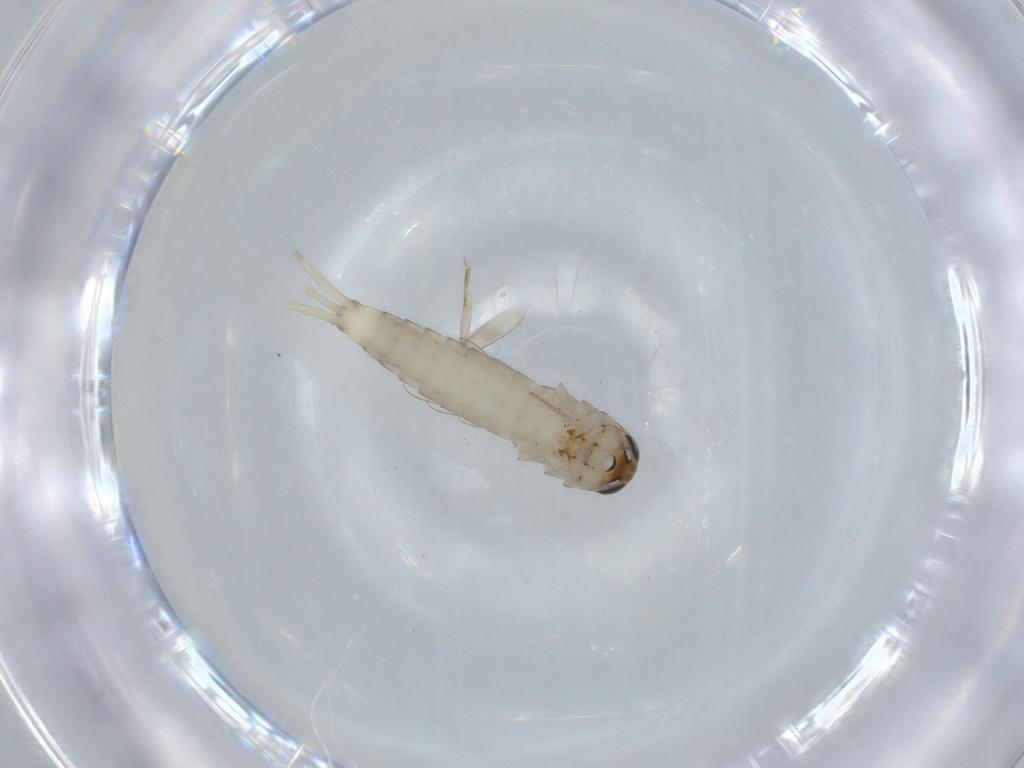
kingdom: Animalia
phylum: Arthropoda
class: Insecta
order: Ephemeroptera
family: Baetidae
